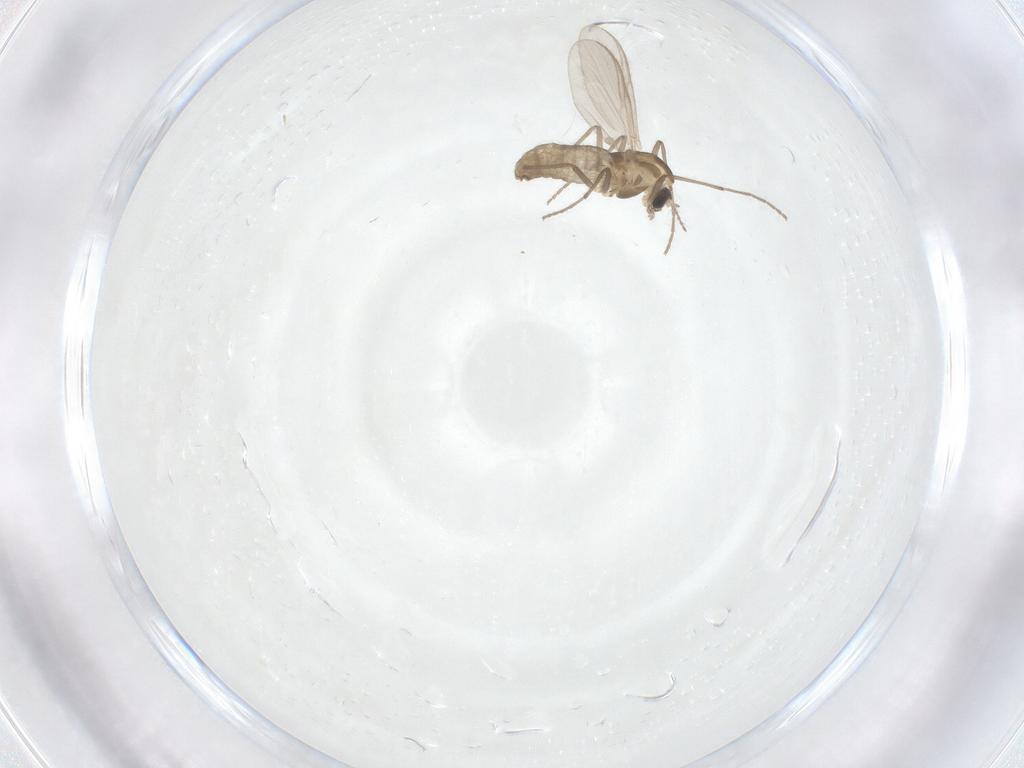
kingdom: Animalia
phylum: Arthropoda
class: Insecta
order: Diptera
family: Chironomidae
